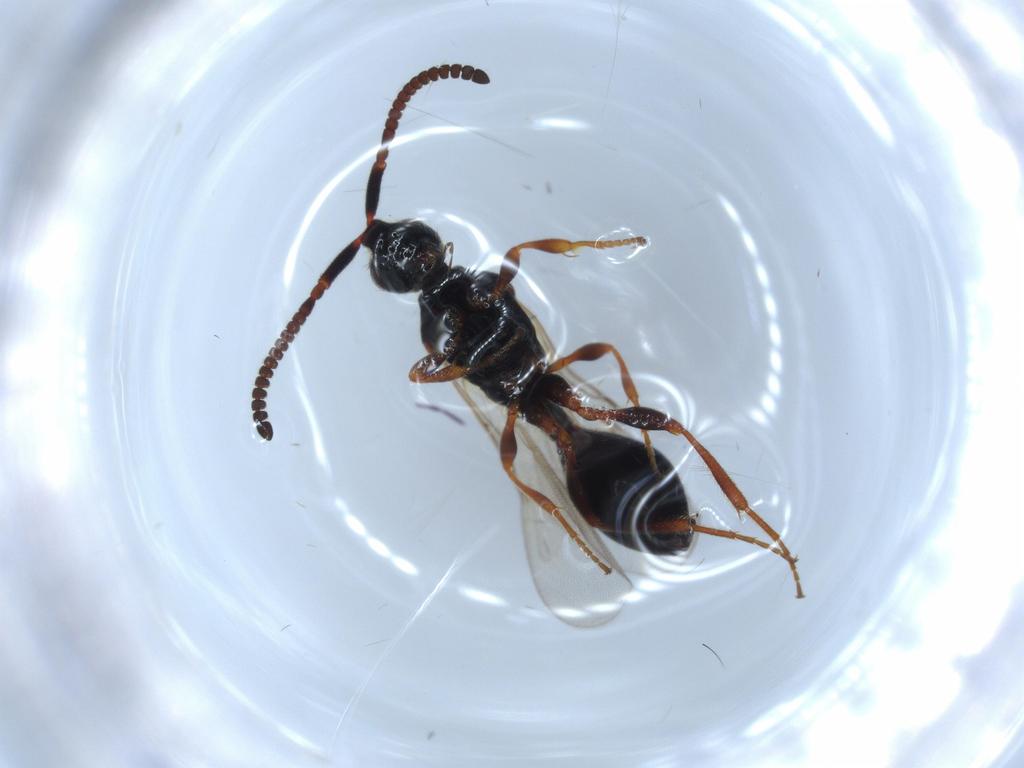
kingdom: Animalia
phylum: Arthropoda
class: Insecta
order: Hymenoptera
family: Diapriidae
